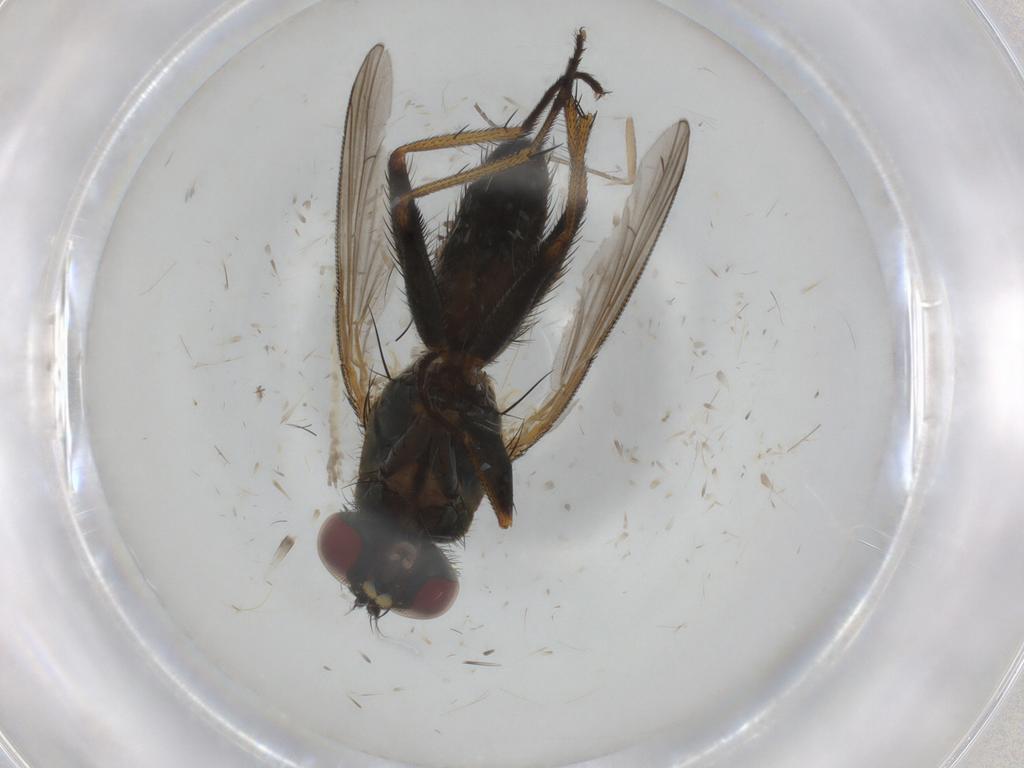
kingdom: Animalia
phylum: Arthropoda
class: Insecta
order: Diptera
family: Muscidae
